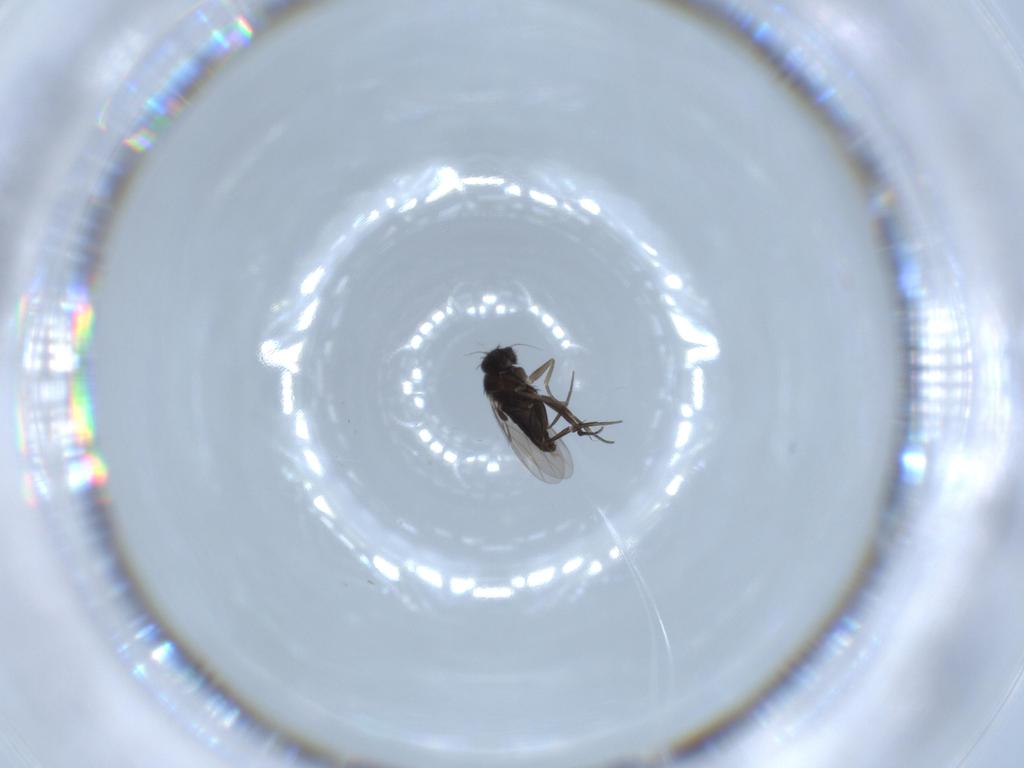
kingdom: Animalia
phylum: Arthropoda
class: Insecta
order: Diptera
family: Phoridae
